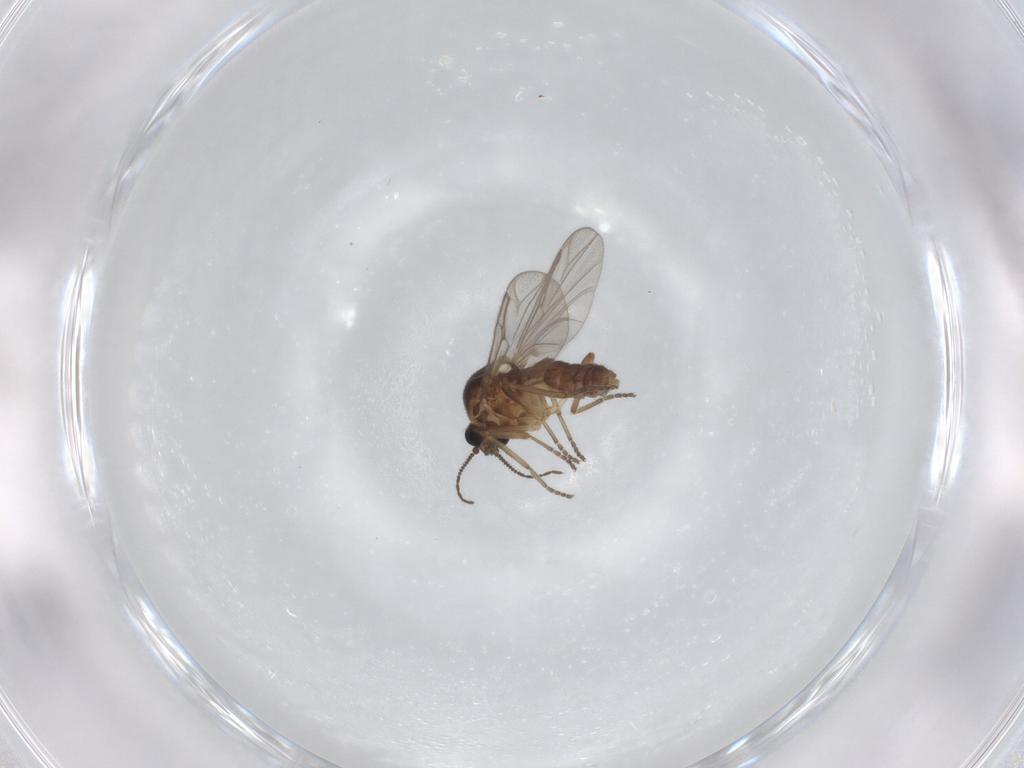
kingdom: Animalia
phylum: Arthropoda
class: Insecta
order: Diptera
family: Ceratopogonidae
